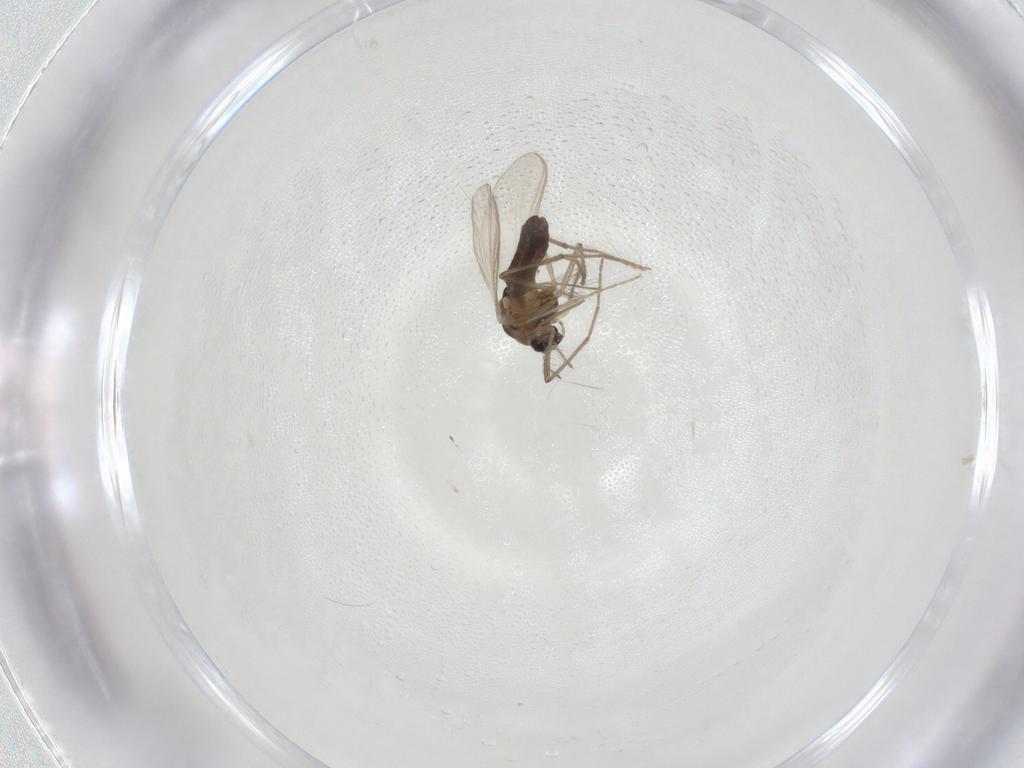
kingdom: Animalia
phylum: Arthropoda
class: Insecta
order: Diptera
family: Chironomidae
